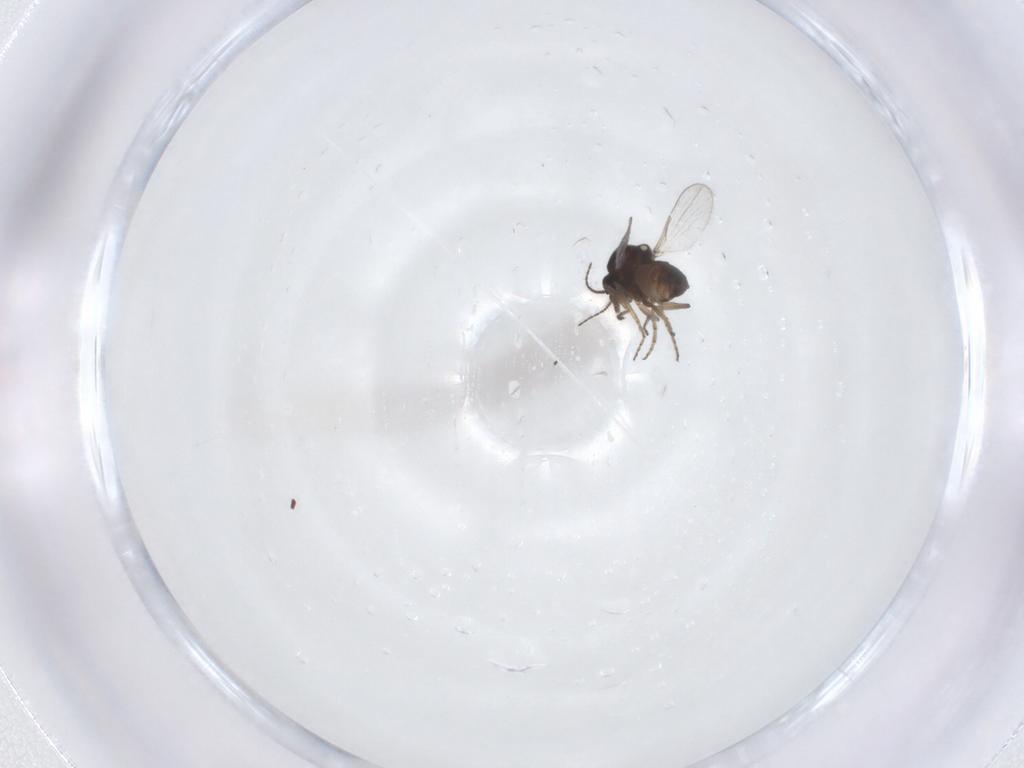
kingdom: Animalia
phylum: Arthropoda
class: Insecta
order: Diptera
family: Ceratopogonidae
